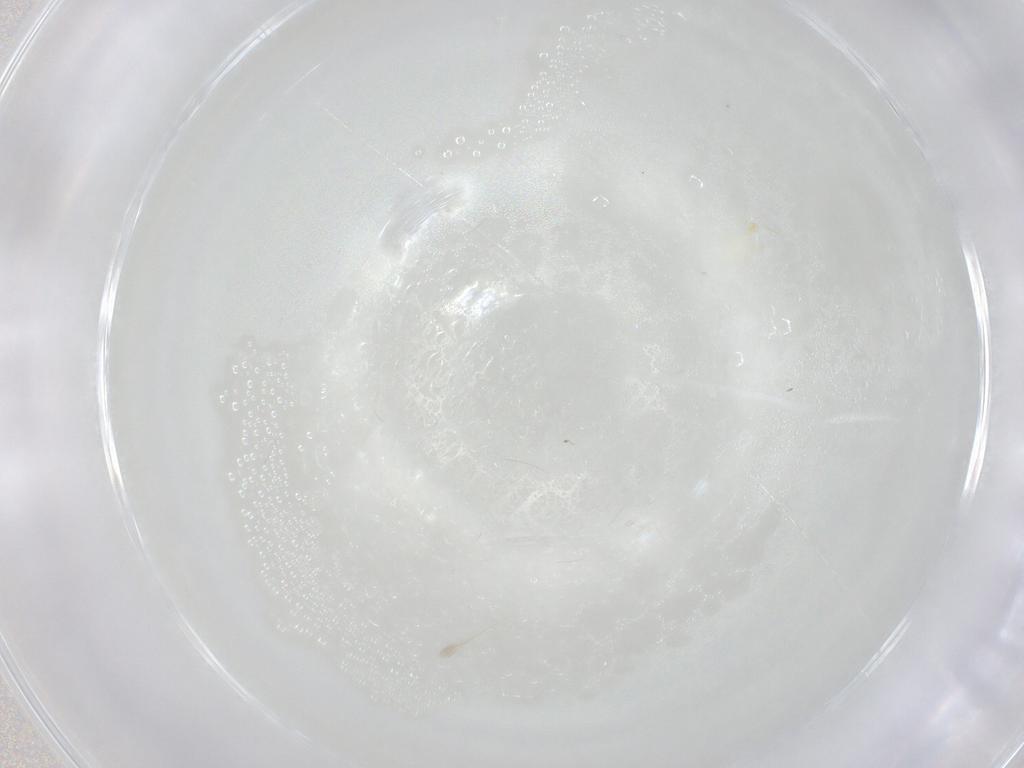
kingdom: Animalia
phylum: Arthropoda
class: Arachnida
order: Trombidiformes
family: Erythraeidae
